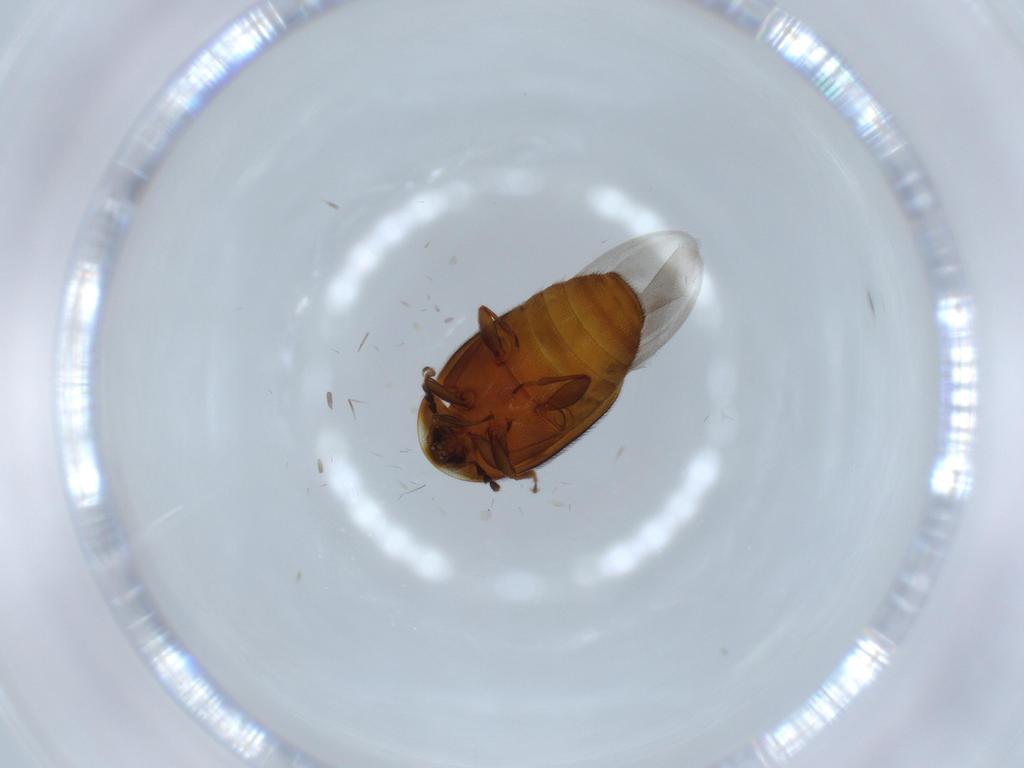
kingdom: Animalia
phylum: Arthropoda
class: Insecta
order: Coleoptera
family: Corylophidae
